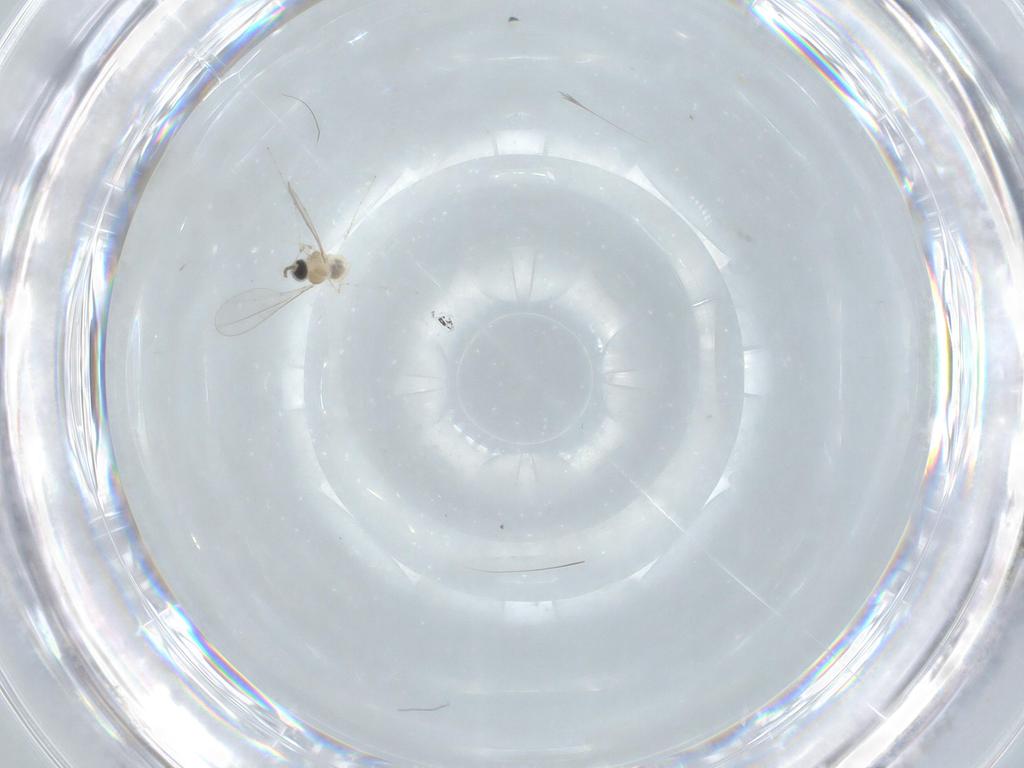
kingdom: Animalia
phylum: Arthropoda
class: Insecta
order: Diptera
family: Cecidomyiidae
